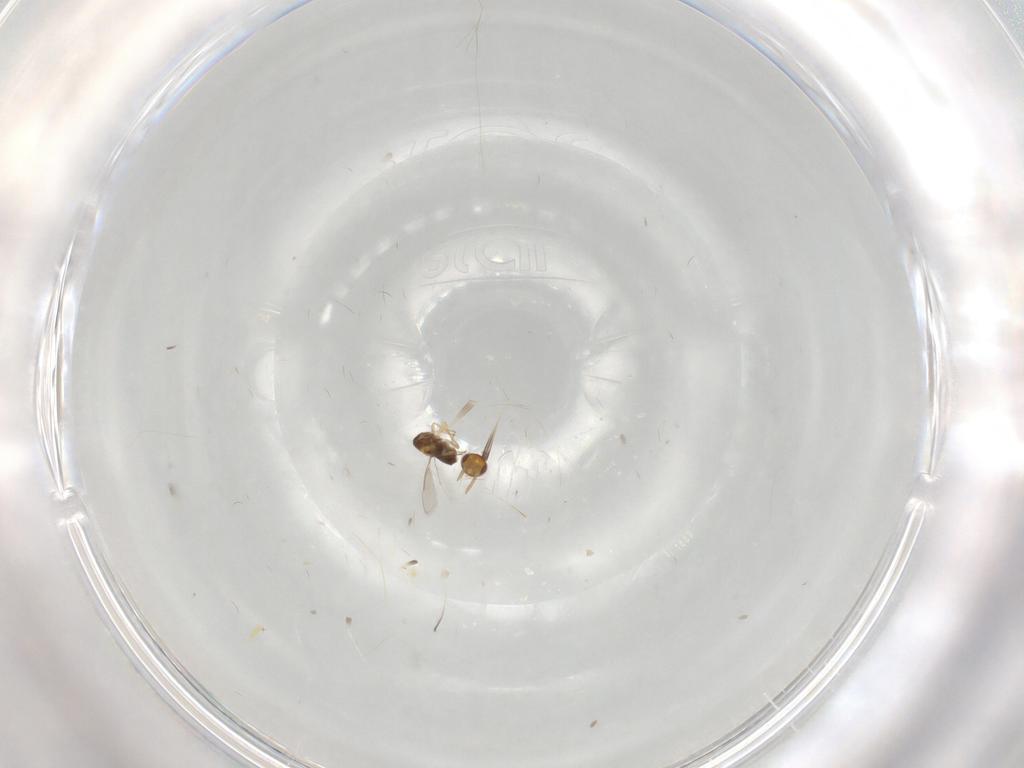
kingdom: Animalia
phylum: Arthropoda
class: Insecta
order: Hymenoptera
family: Aphelinidae
